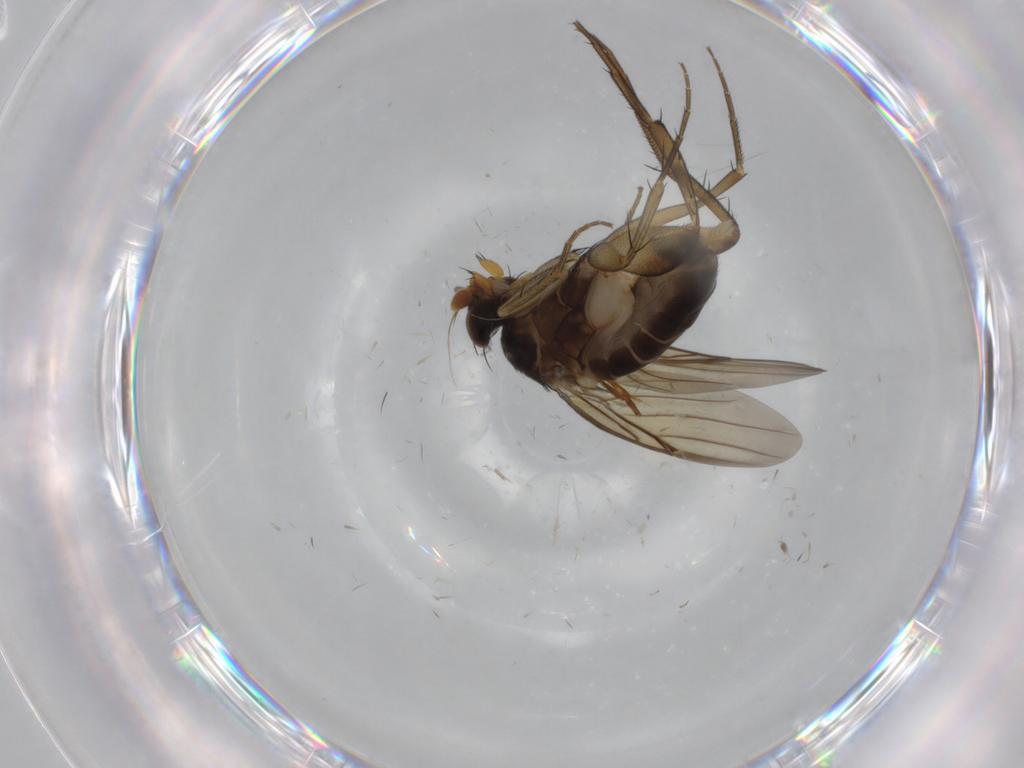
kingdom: Animalia
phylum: Arthropoda
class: Insecta
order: Diptera
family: Phoridae
